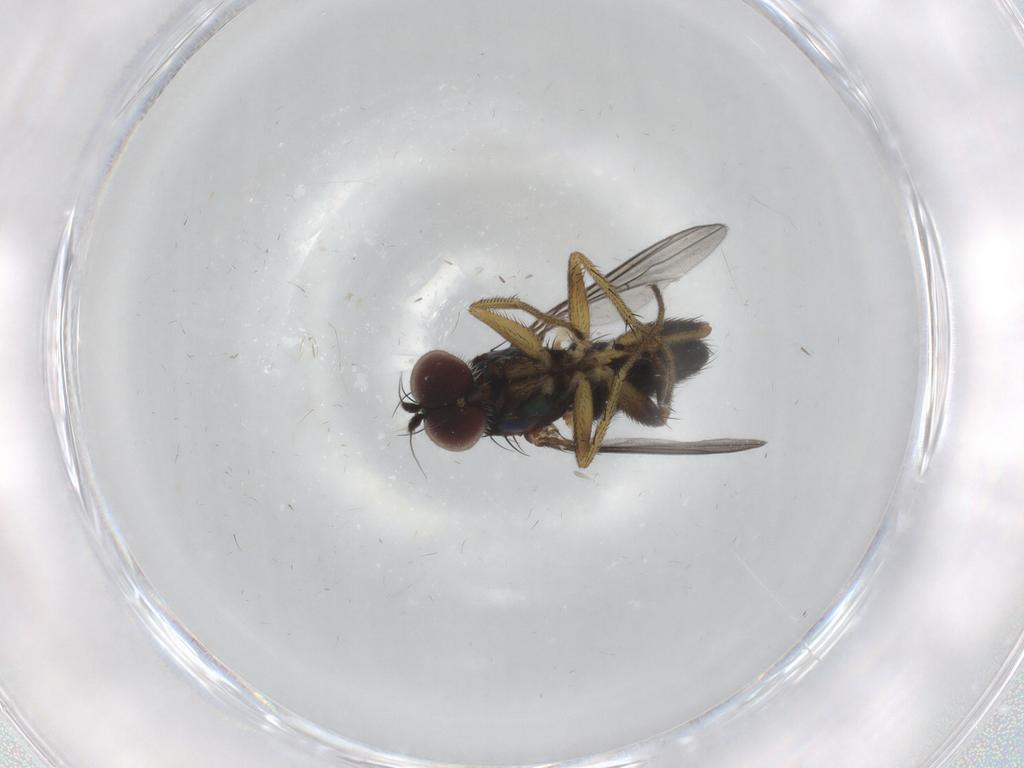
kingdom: Animalia
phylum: Arthropoda
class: Insecta
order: Diptera
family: Dolichopodidae
